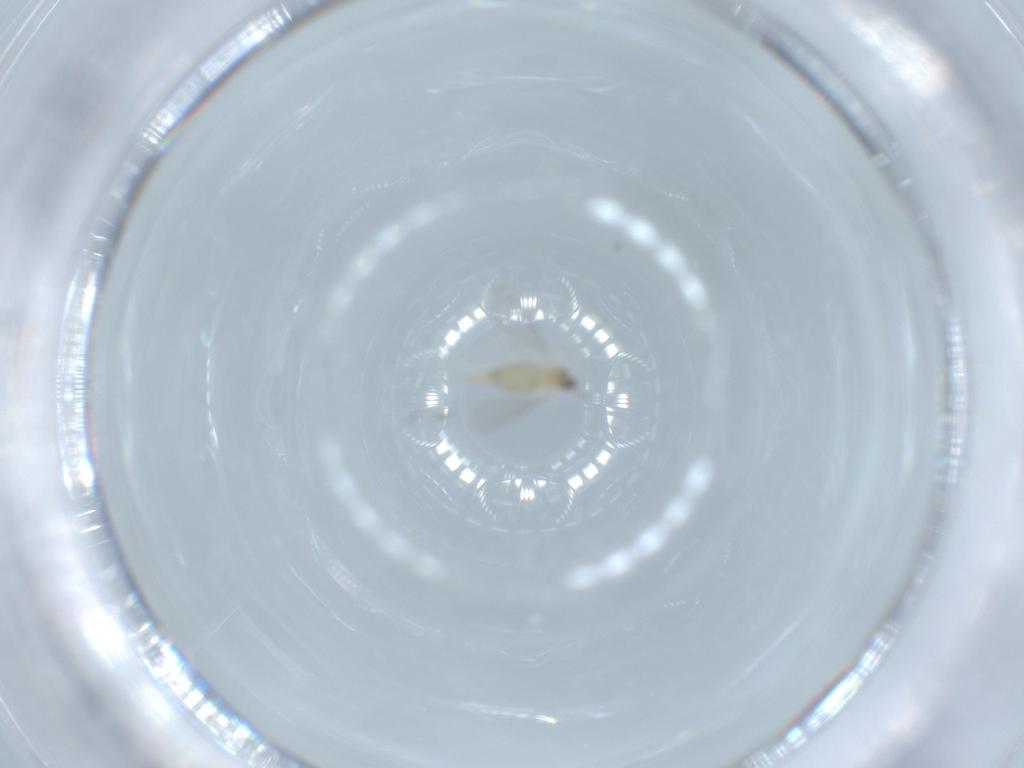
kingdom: Animalia
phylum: Arthropoda
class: Insecta
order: Diptera
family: Cecidomyiidae
